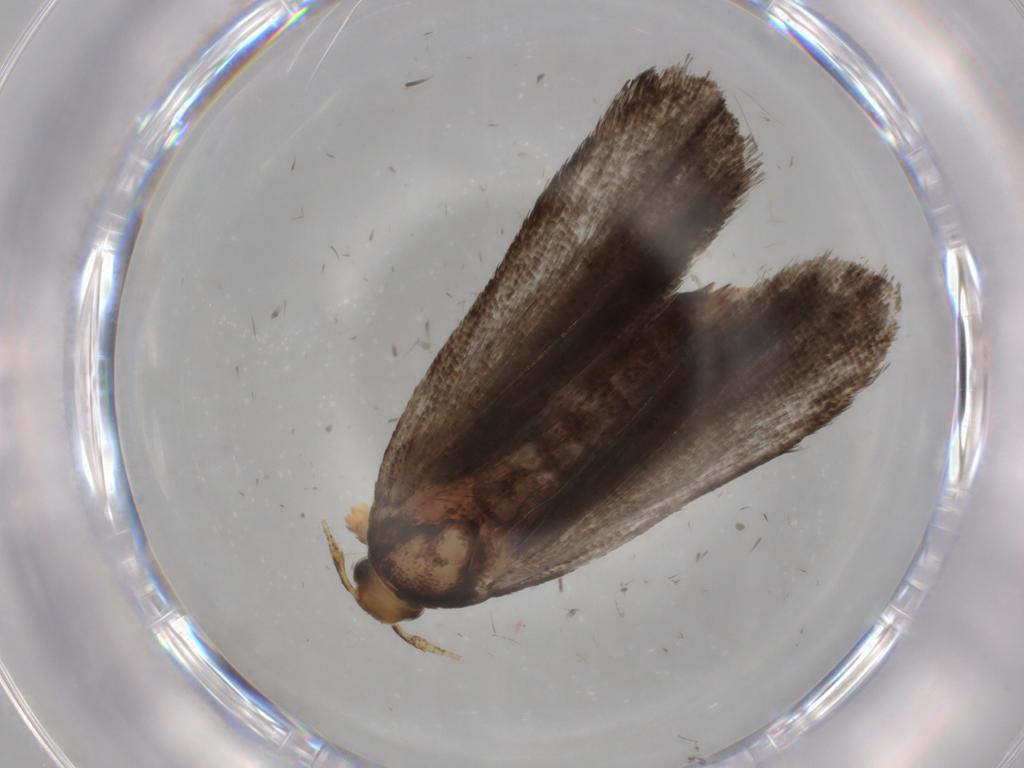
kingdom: Animalia
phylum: Arthropoda
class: Insecta
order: Lepidoptera
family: Autostichidae
